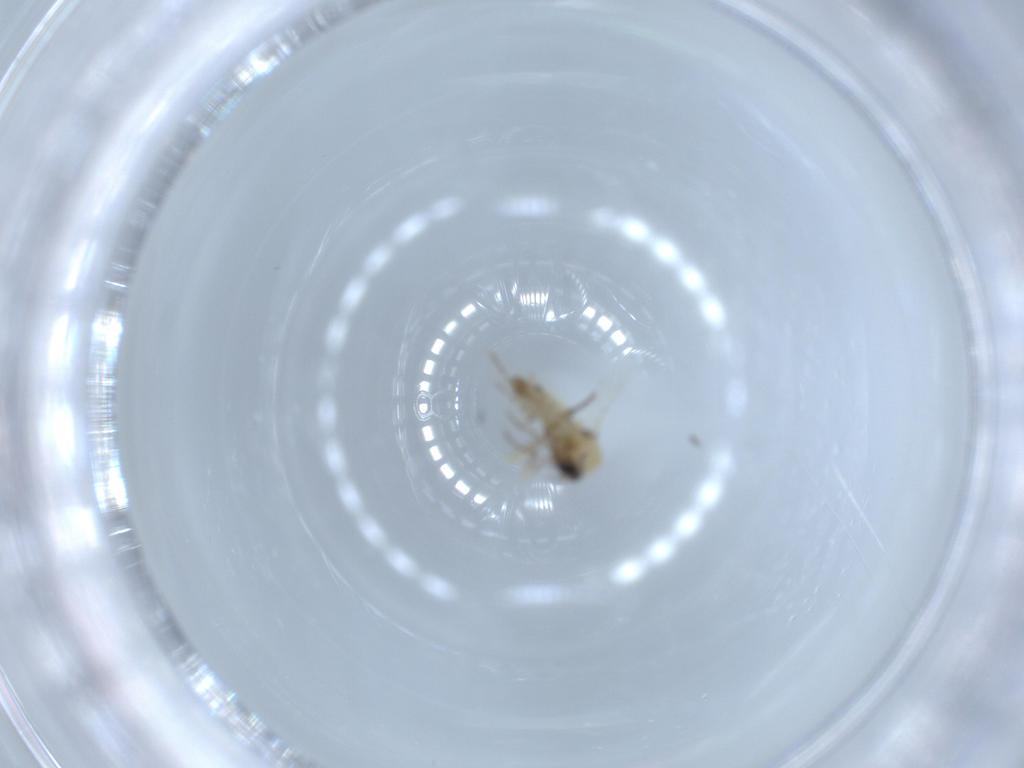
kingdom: Animalia
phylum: Arthropoda
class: Insecta
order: Diptera
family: Ceratopogonidae
